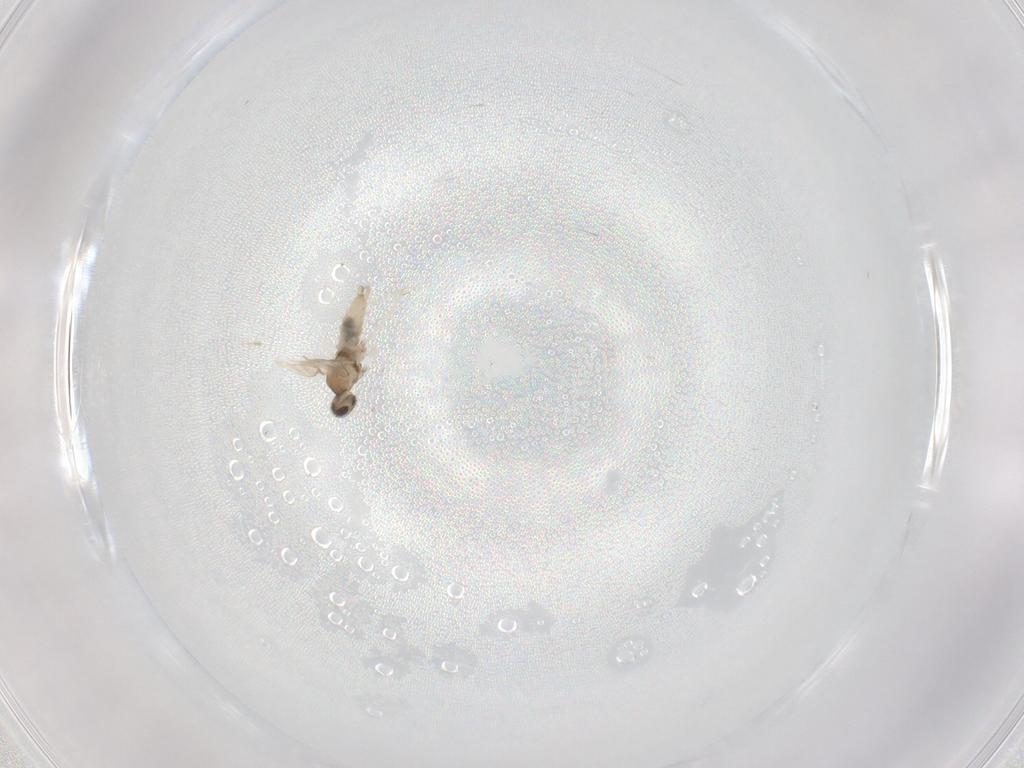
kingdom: Animalia
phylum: Arthropoda
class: Insecta
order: Diptera
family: Cecidomyiidae
